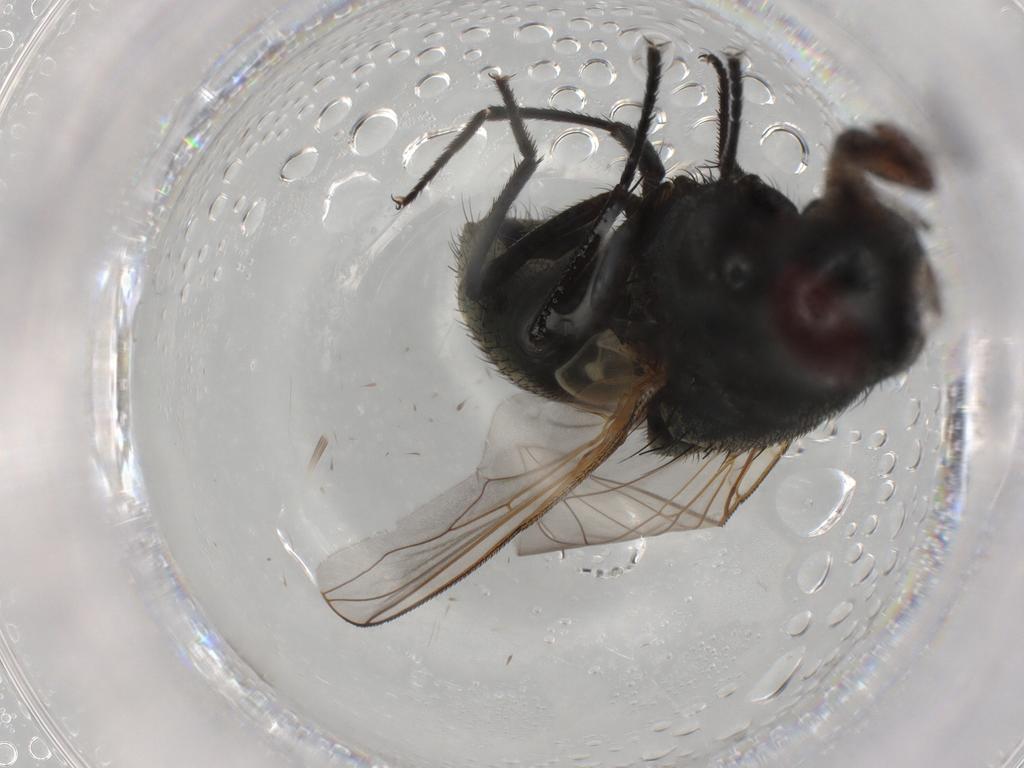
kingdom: Animalia
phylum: Arthropoda
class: Insecta
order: Diptera
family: Muscidae
